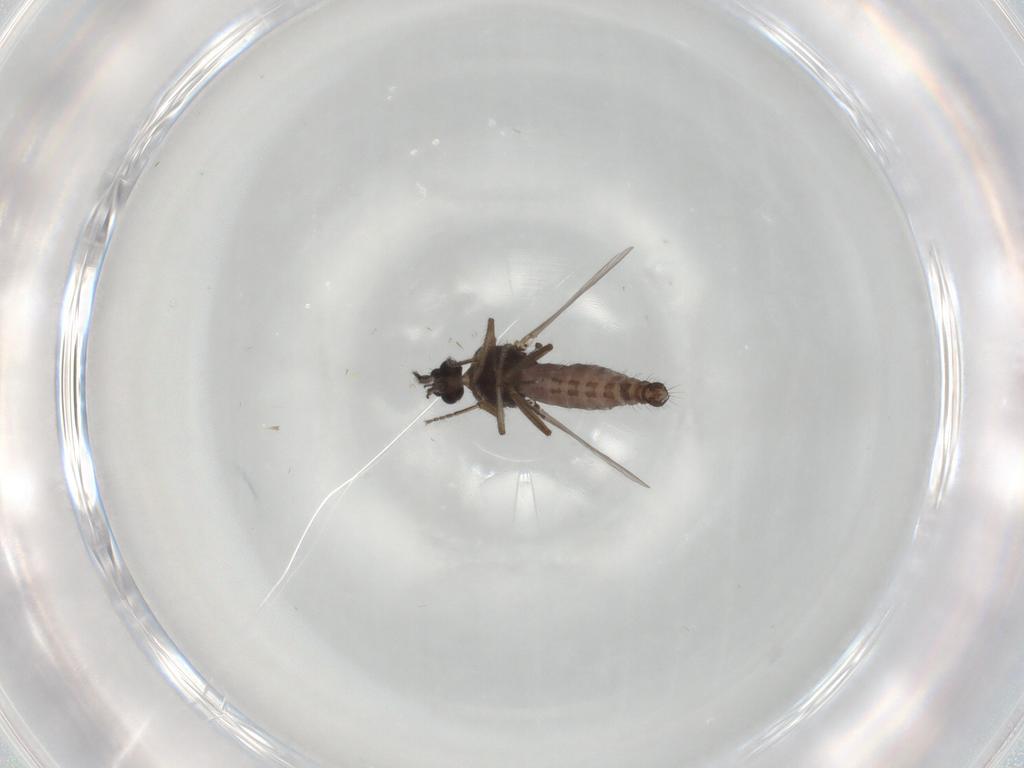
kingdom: Animalia
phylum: Arthropoda
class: Insecta
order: Diptera
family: Ceratopogonidae
